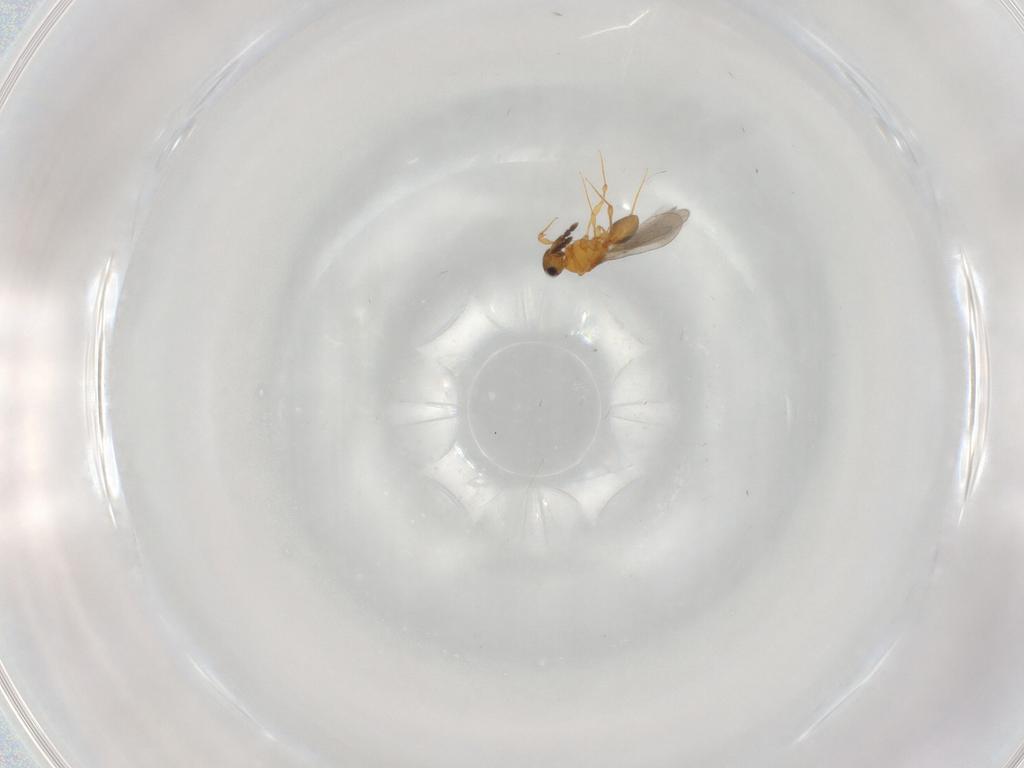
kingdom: Animalia
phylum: Arthropoda
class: Insecta
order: Hymenoptera
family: Platygastridae
